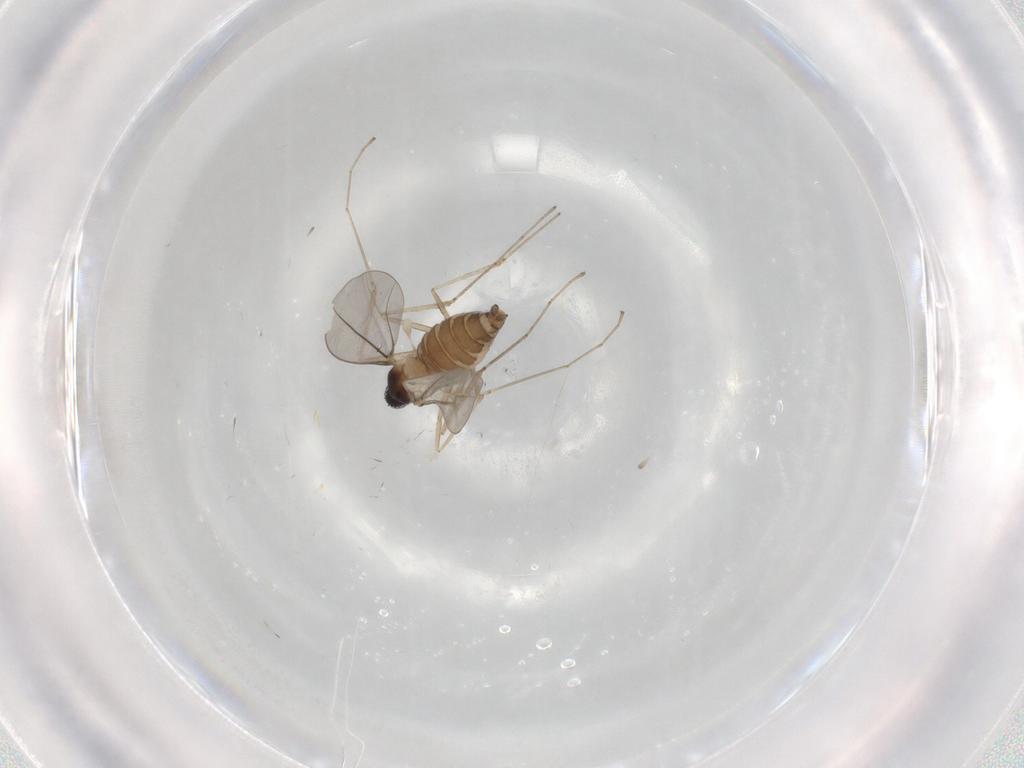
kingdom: Animalia
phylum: Arthropoda
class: Insecta
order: Diptera
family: Cecidomyiidae
